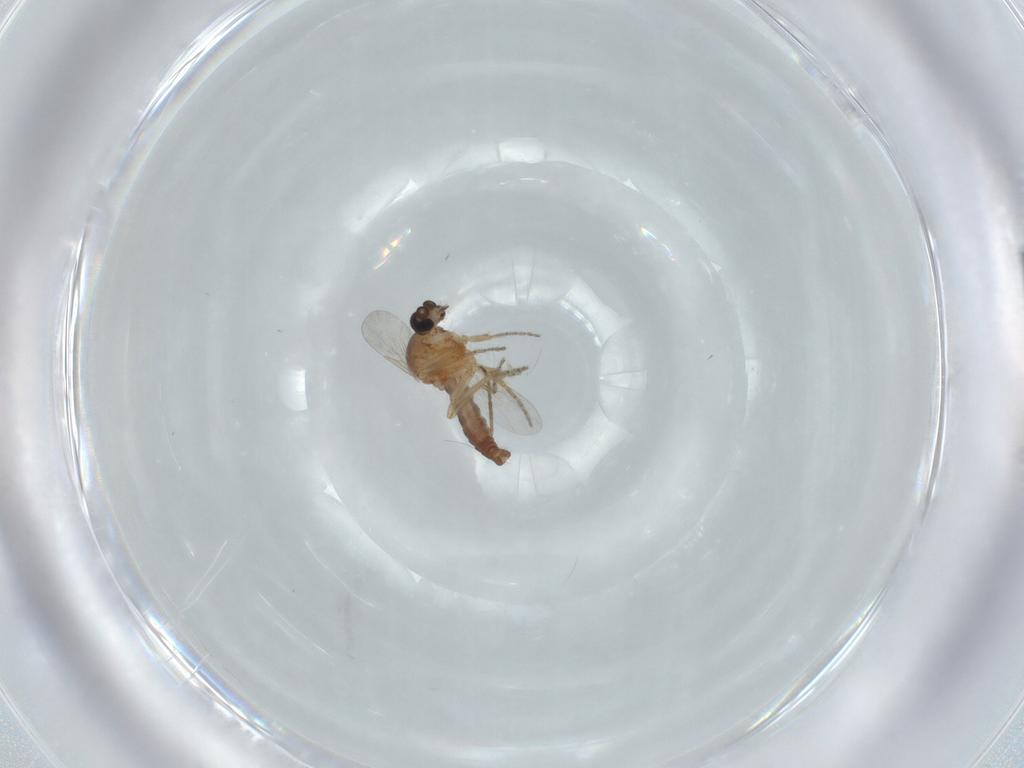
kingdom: Animalia
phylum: Arthropoda
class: Insecta
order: Diptera
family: Ceratopogonidae
